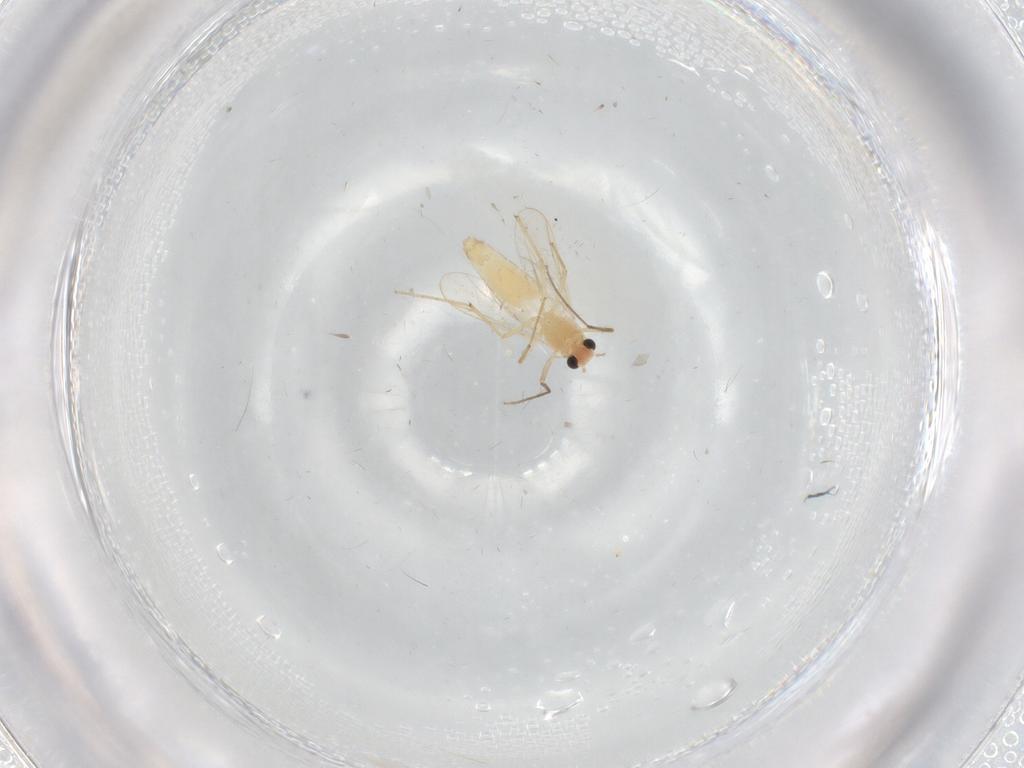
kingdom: Animalia
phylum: Arthropoda
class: Insecta
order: Diptera
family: Chironomidae
